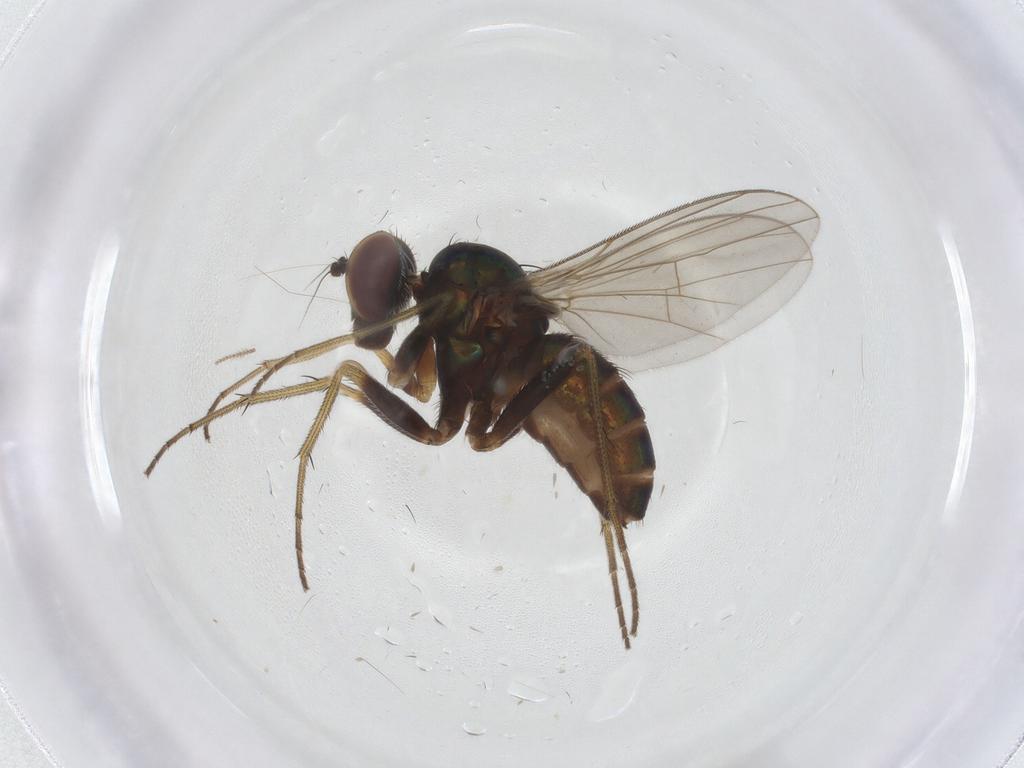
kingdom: Animalia
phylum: Arthropoda
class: Insecta
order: Diptera
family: Dolichopodidae
